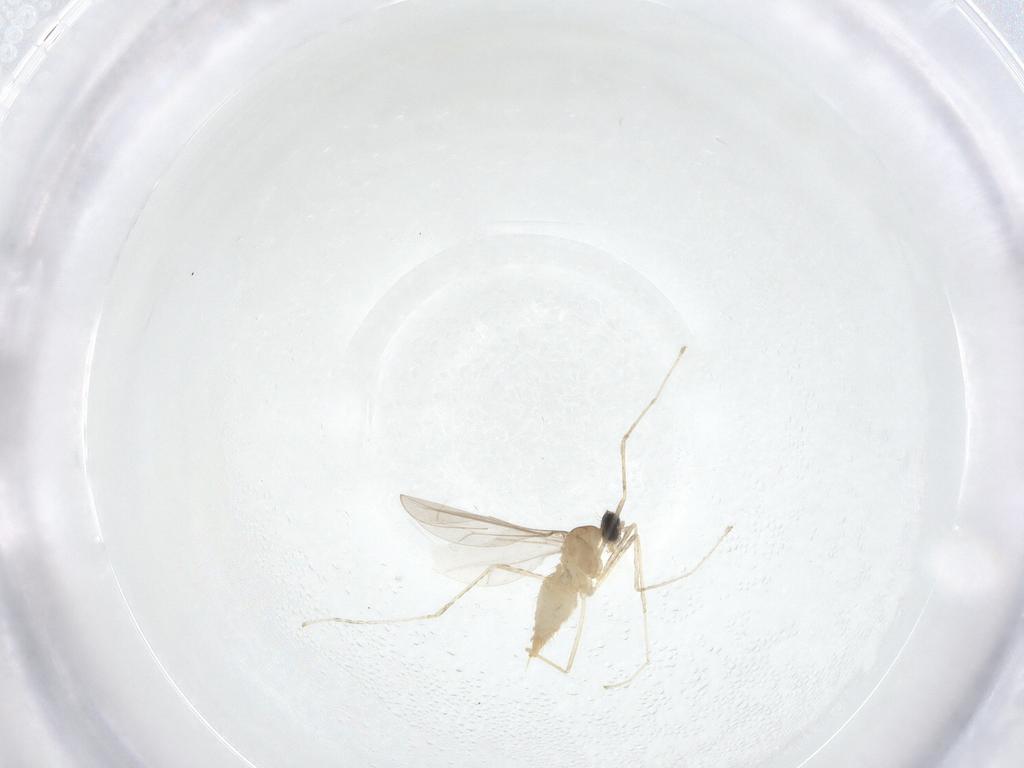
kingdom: Animalia
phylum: Arthropoda
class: Insecta
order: Diptera
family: Cecidomyiidae
